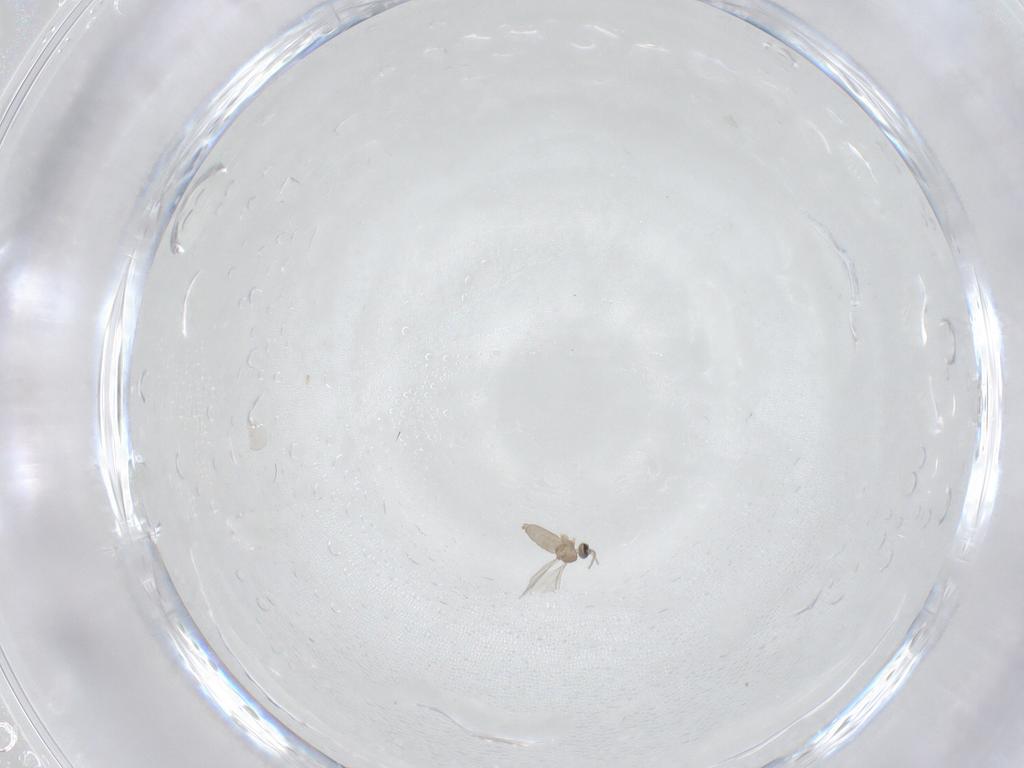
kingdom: Animalia
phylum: Arthropoda
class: Insecta
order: Diptera
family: Cecidomyiidae
